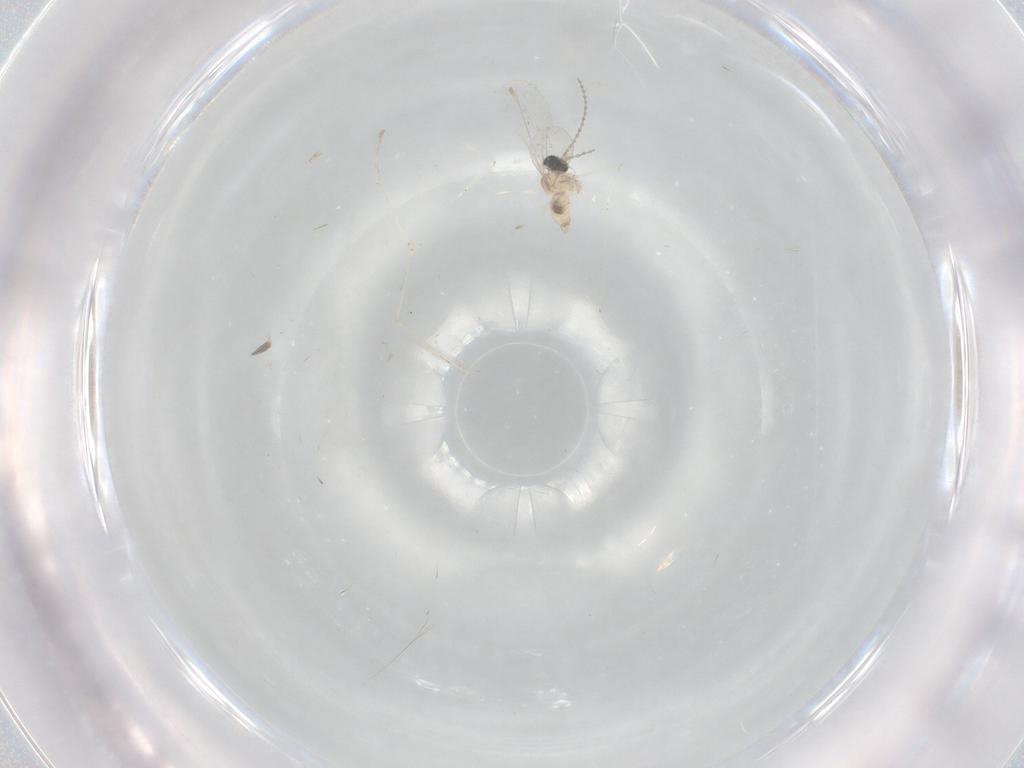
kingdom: Animalia
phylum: Arthropoda
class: Insecta
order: Diptera
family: Cecidomyiidae
